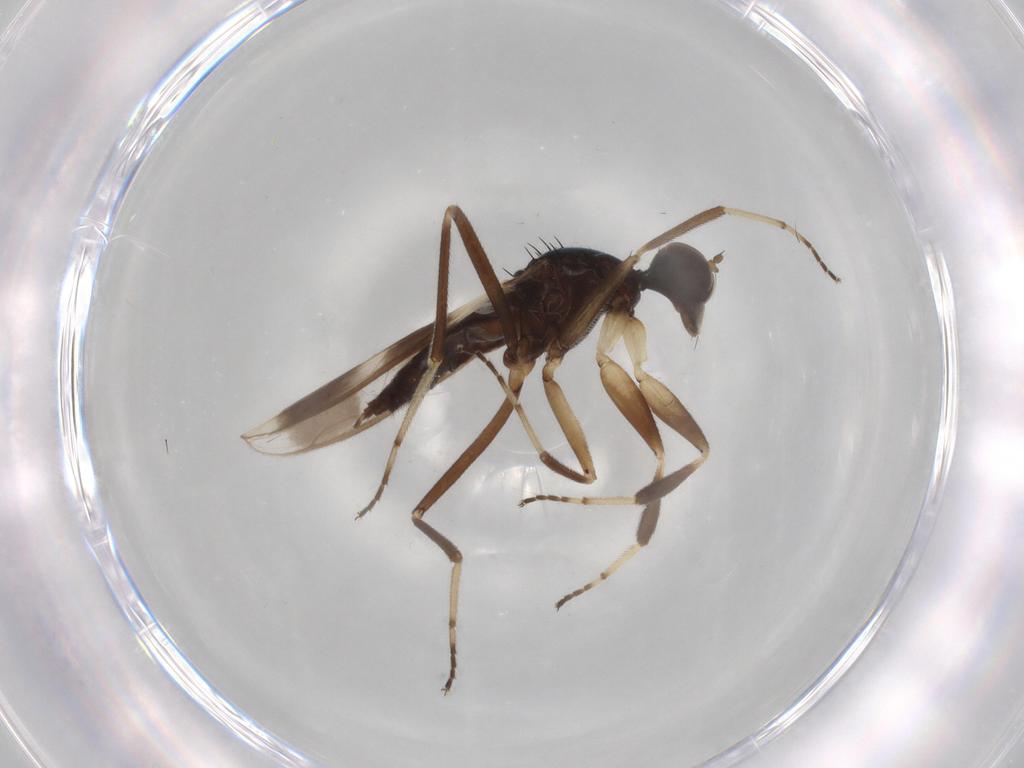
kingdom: Animalia
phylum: Arthropoda
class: Insecta
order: Diptera
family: Hybotidae
